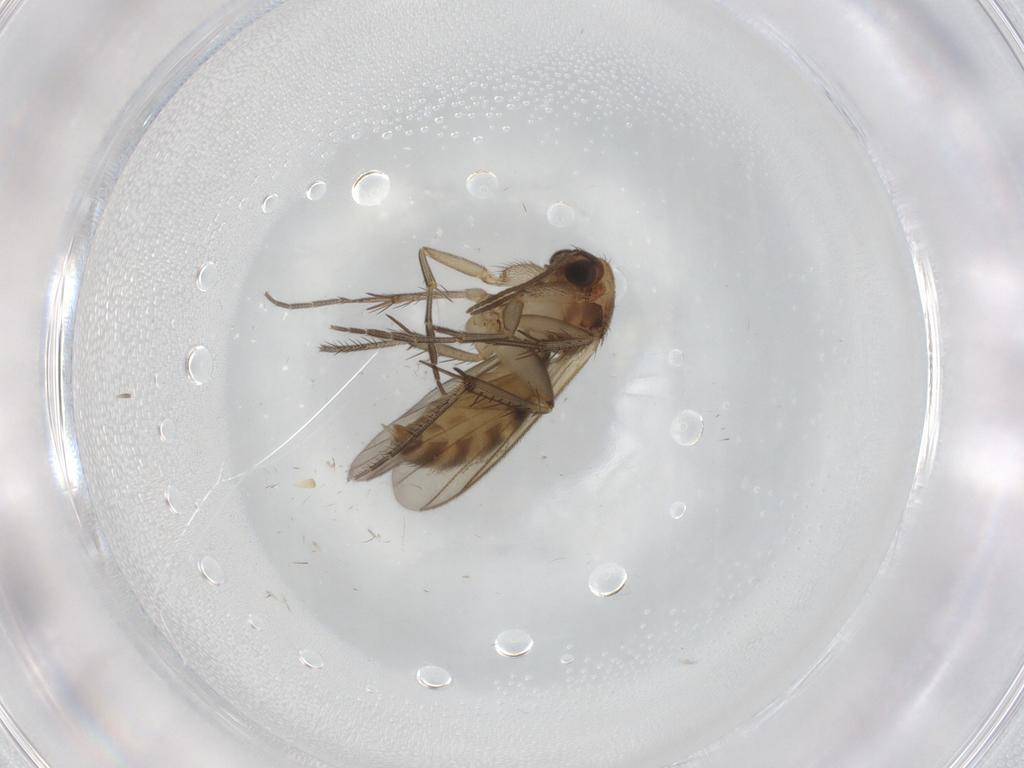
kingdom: Animalia
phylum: Arthropoda
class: Insecta
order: Diptera
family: Mycetophilidae
